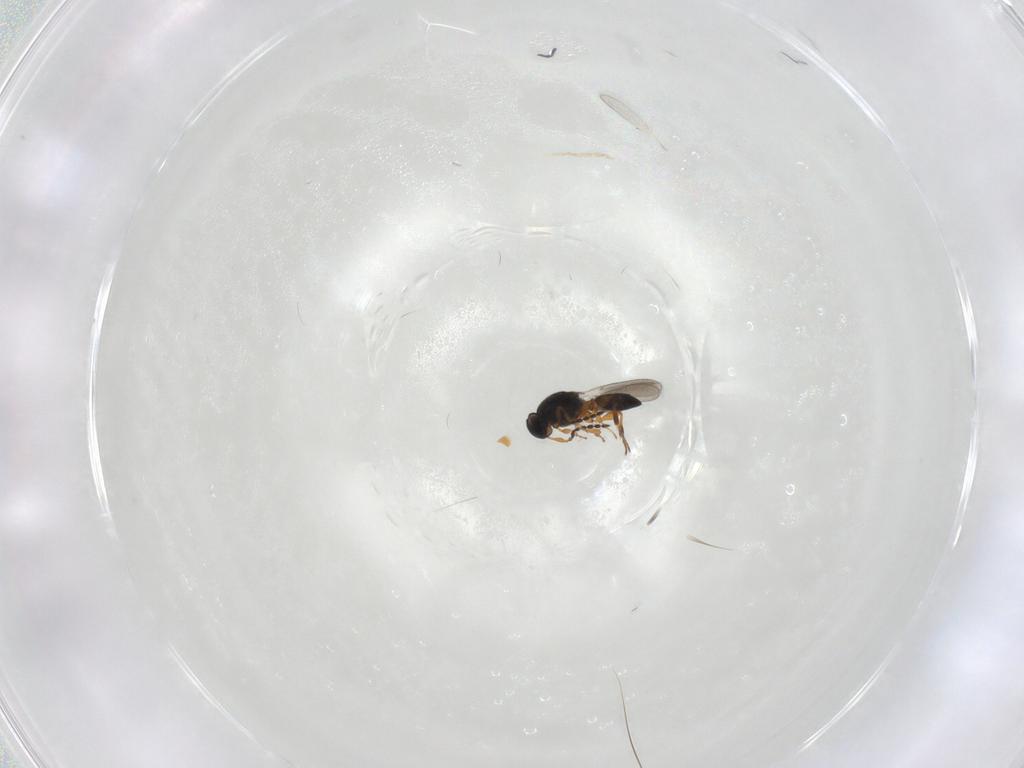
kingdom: Animalia
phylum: Arthropoda
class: Insecta
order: Hymenoptera
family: Platygastridae
